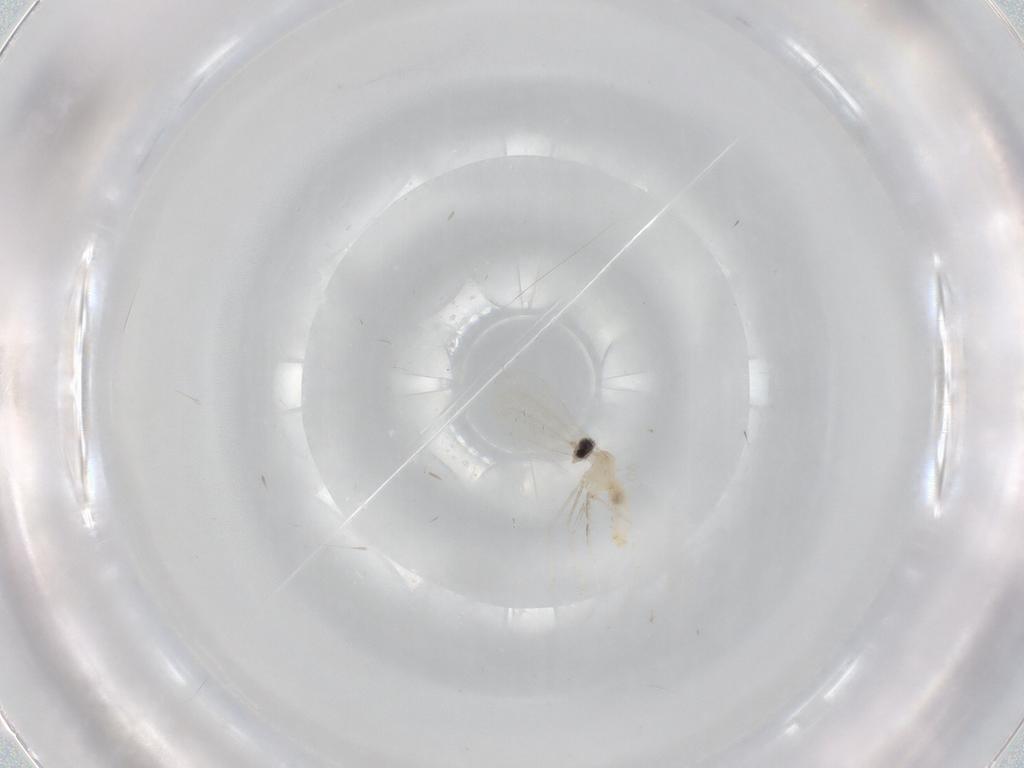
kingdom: Animalia
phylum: Arthropoda
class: Insecta
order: Diptera
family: Cecidomyiidae
